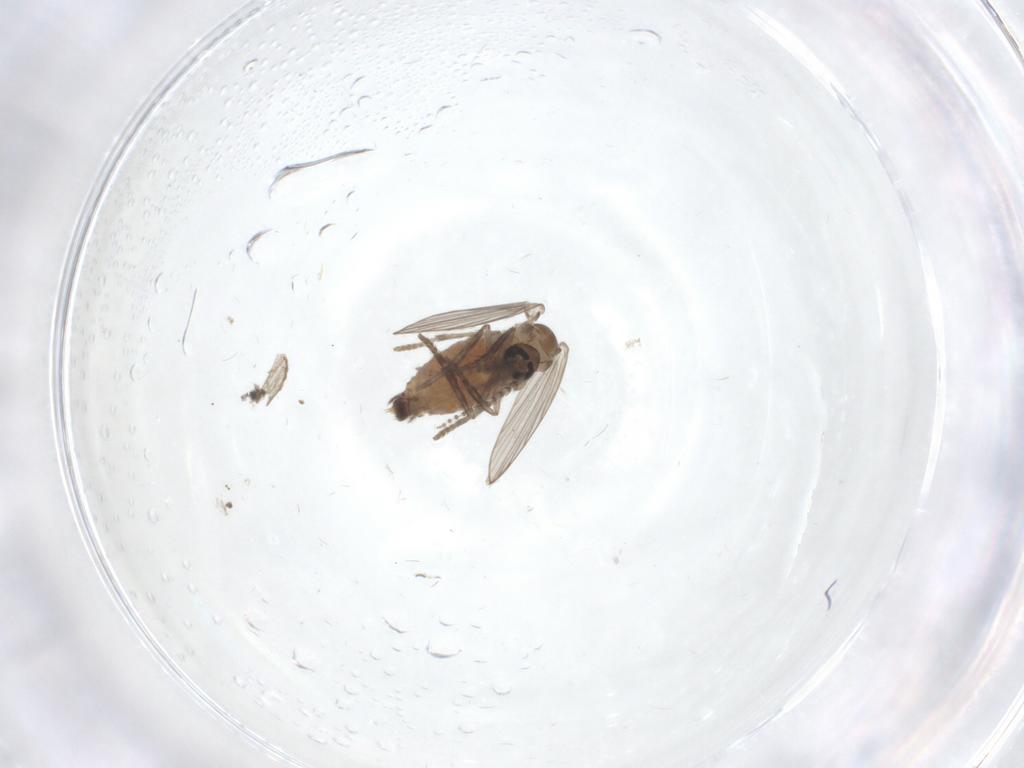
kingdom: Animalia
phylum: Arthropoda
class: Insecta
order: Diptera
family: Psychodidae
